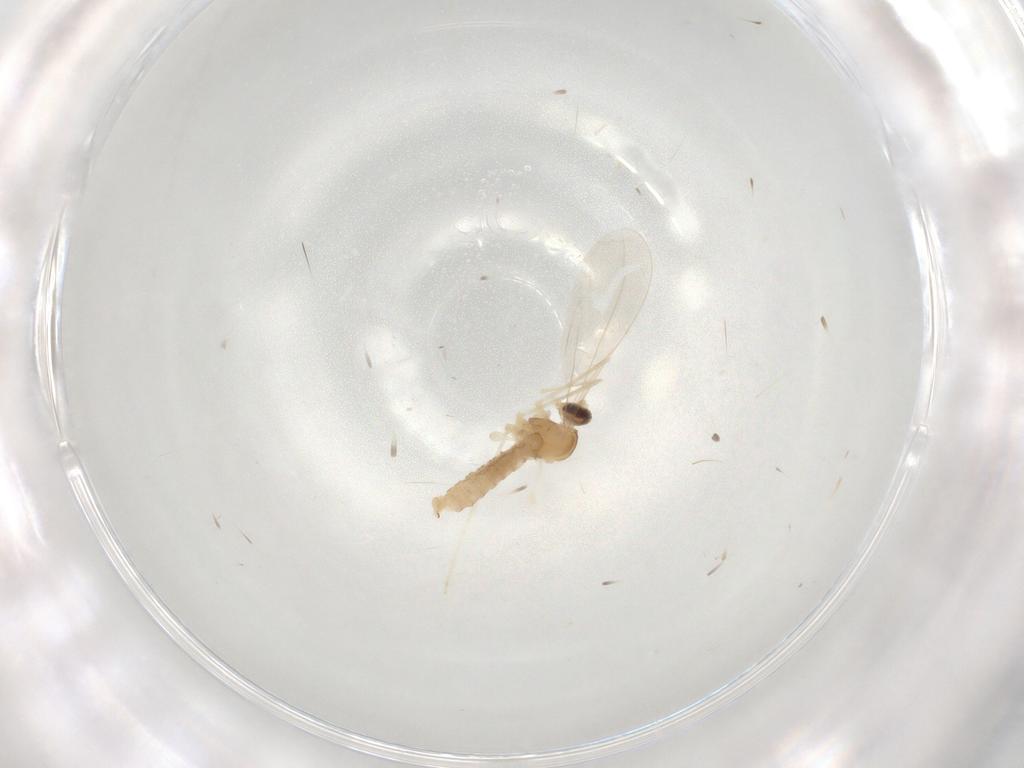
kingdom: Animalia
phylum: Arthropoda
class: Insecta
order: Diptera
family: Cecidomyiidae
